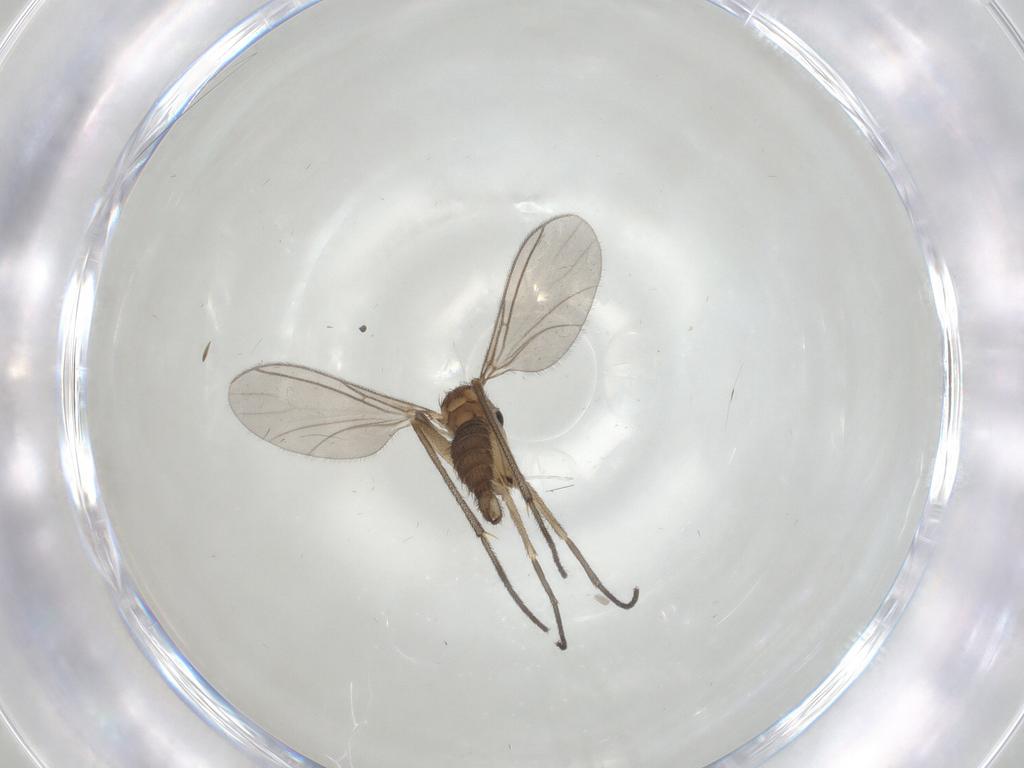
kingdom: Animalia
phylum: Arthropoda
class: Insecta
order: Diptera
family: Sciaridae
